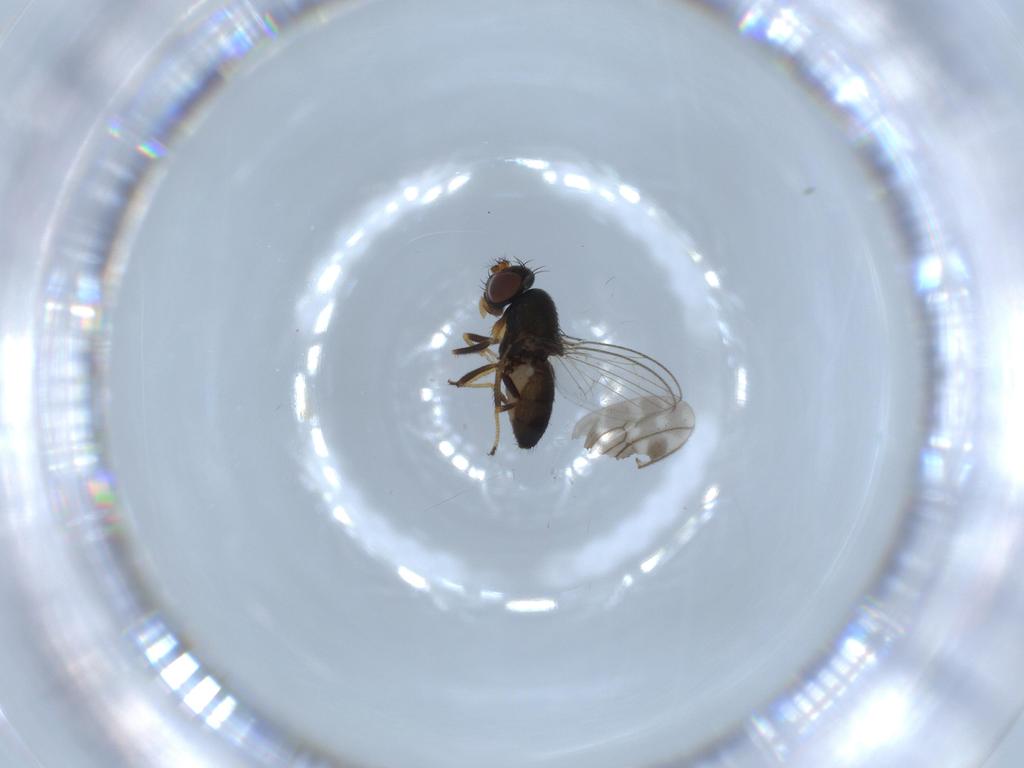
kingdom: Animalia
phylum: Arthropoda
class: Insecta
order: Diptera
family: Ephydridae
